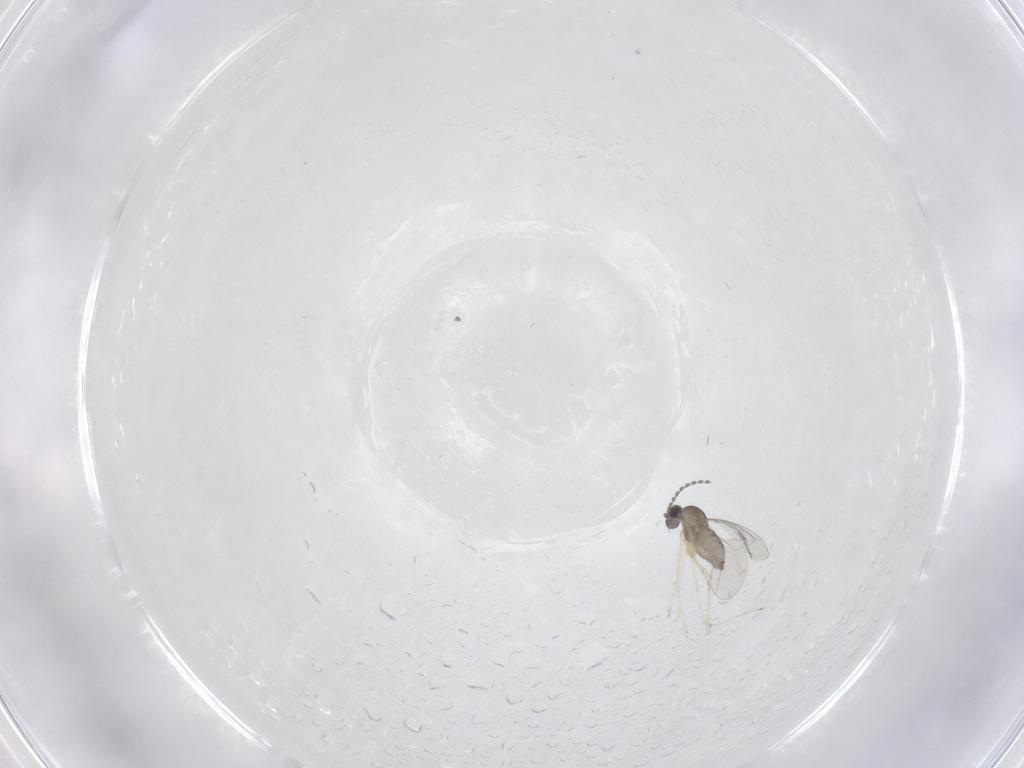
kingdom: Animalia
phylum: Arthropoda
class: Insecta
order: Diptera
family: Cecidomyiidae
